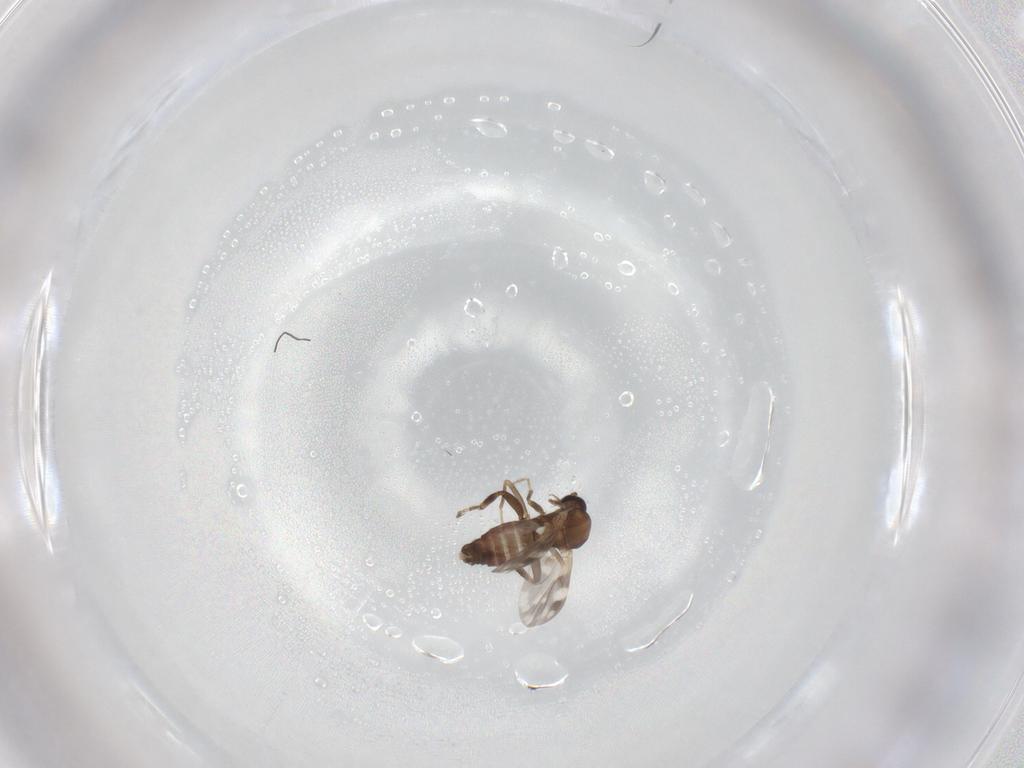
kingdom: Animalia
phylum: Arthropoda
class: Insecta
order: Diptera
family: Ceratopogonidae
